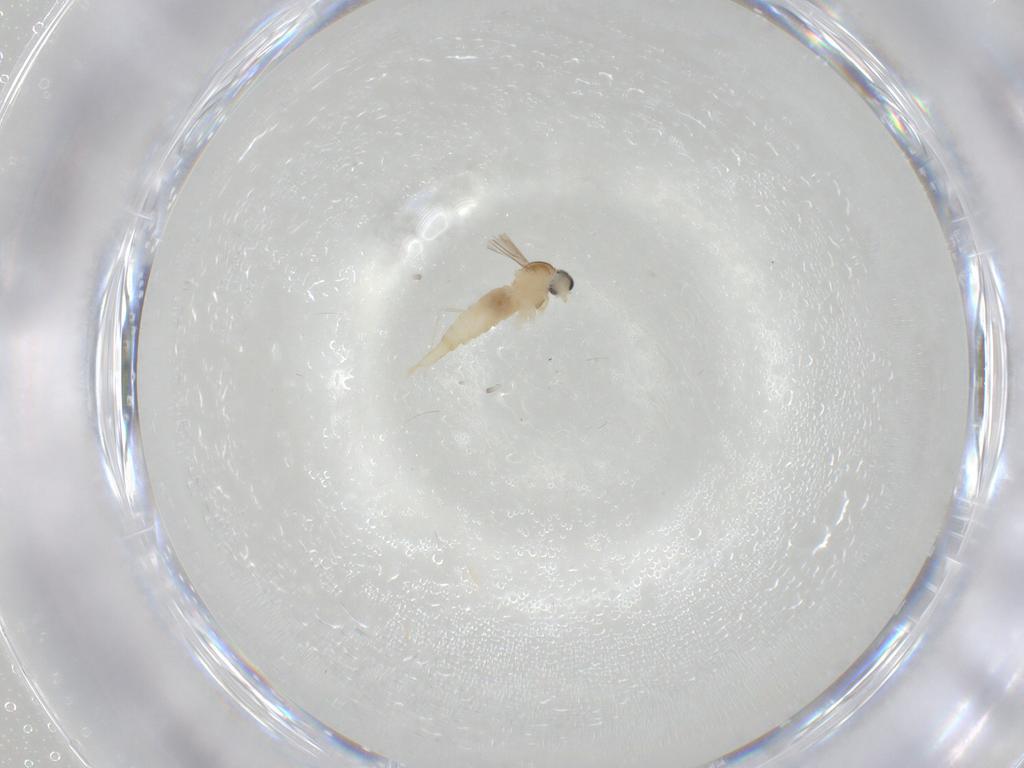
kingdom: Animalia
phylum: Arthropoda
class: Insecta
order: Diptera
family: Cecidomyiidae
